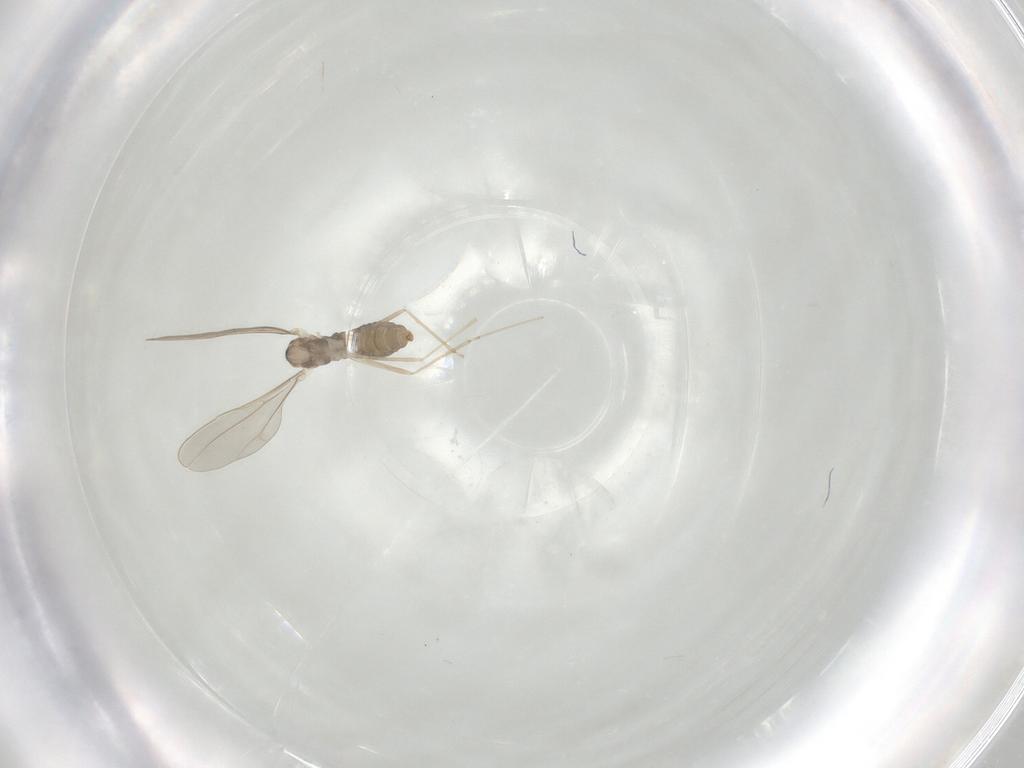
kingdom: Animalia
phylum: Arthropoda
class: Insecta
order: Diptera
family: Cecidomyiidae
